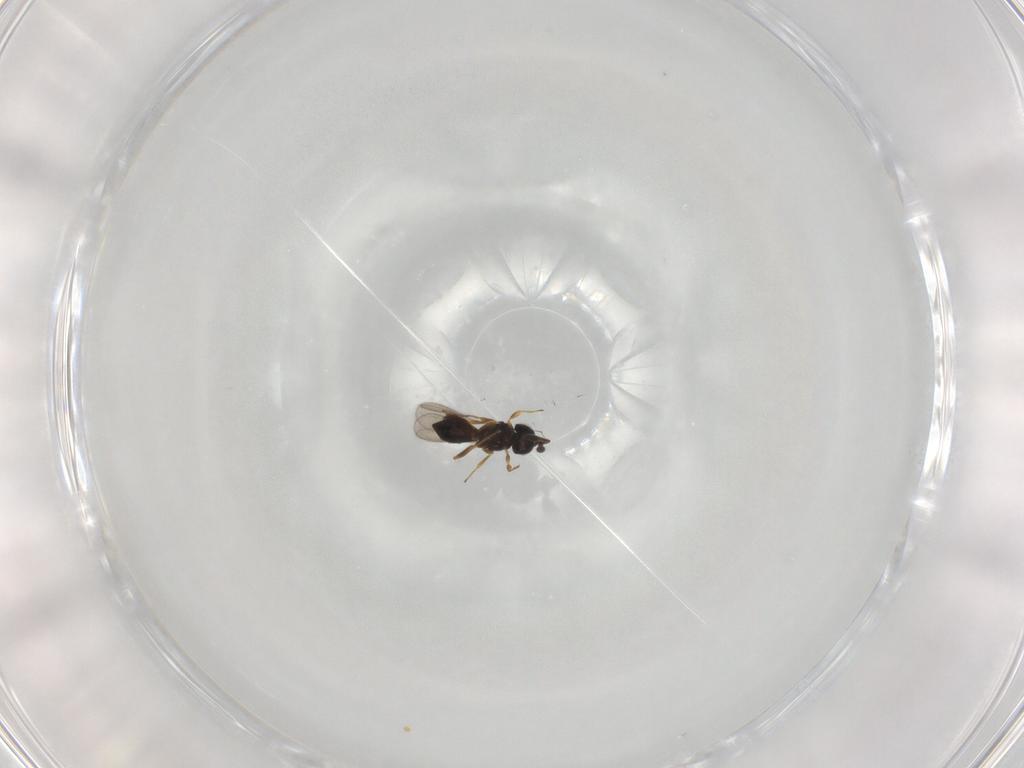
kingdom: Animalia
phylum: Arthropoda
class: Insecta
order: Hymenoptera
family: Scelionidae
